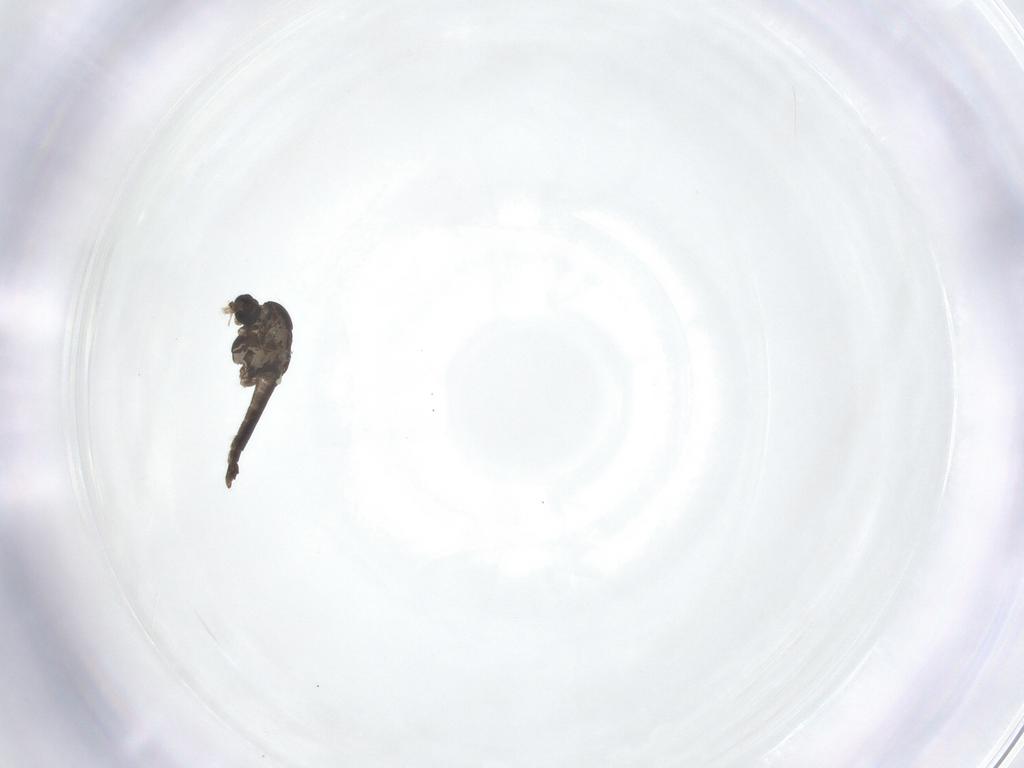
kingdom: Animalia
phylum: Arthropoda
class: Insecta
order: Diptera
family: Chironomidae
